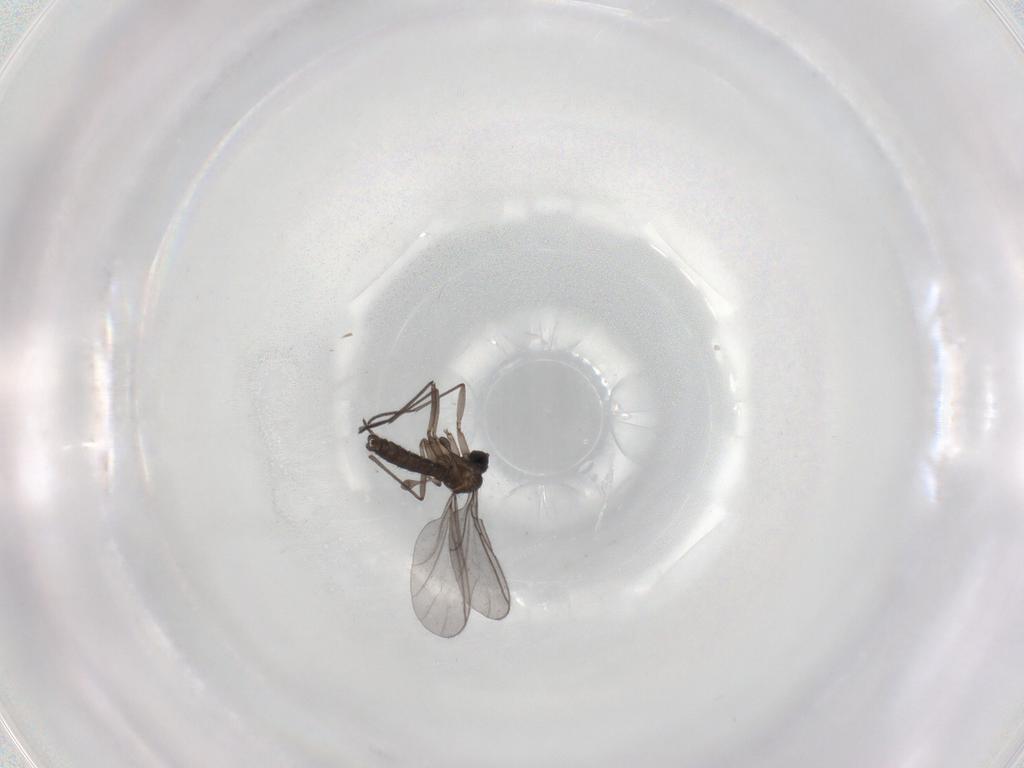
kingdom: Animalia
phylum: Arthropoda
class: Insecta
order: Diptera
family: Sciaridae
